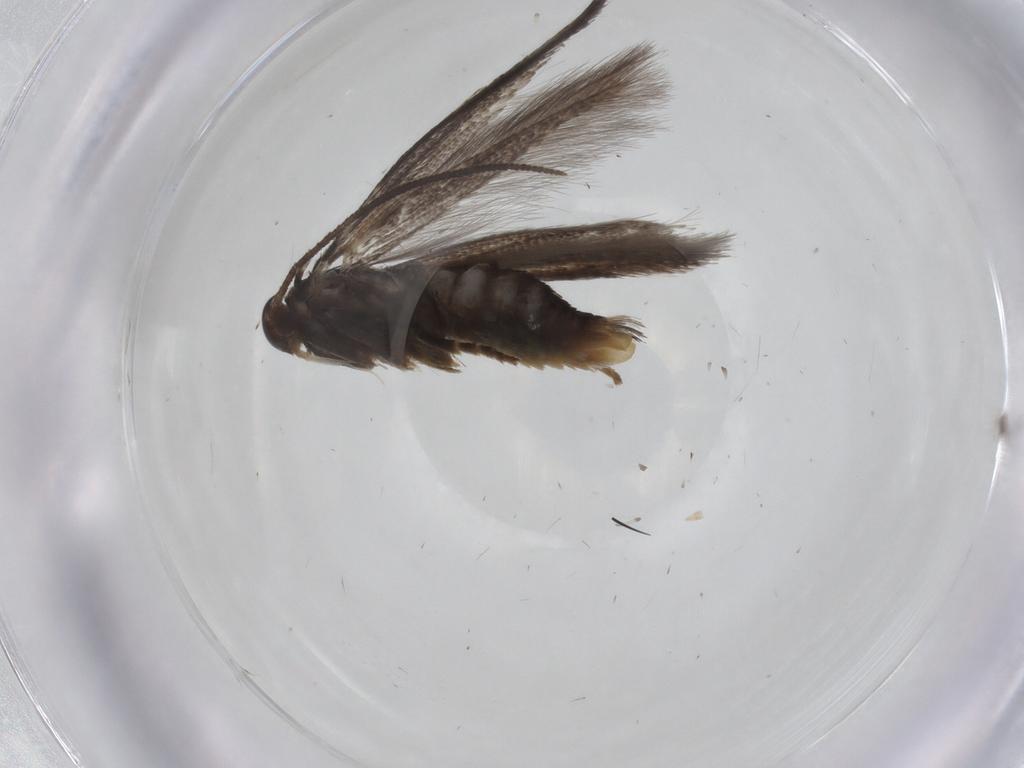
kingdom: Animalia
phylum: Arthropoda
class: Insecta
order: Lepidoptera
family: Elachistidae
